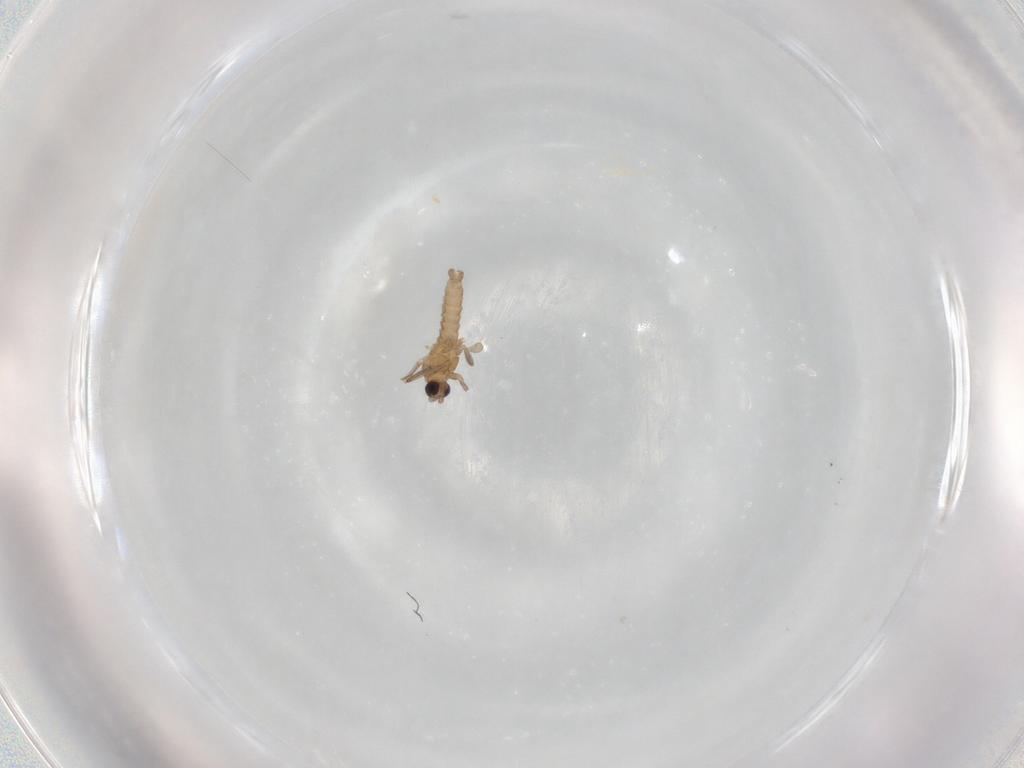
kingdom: Animalia
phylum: Arthropoda
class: Insecta
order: Diptera
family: Cecidomyiidae
